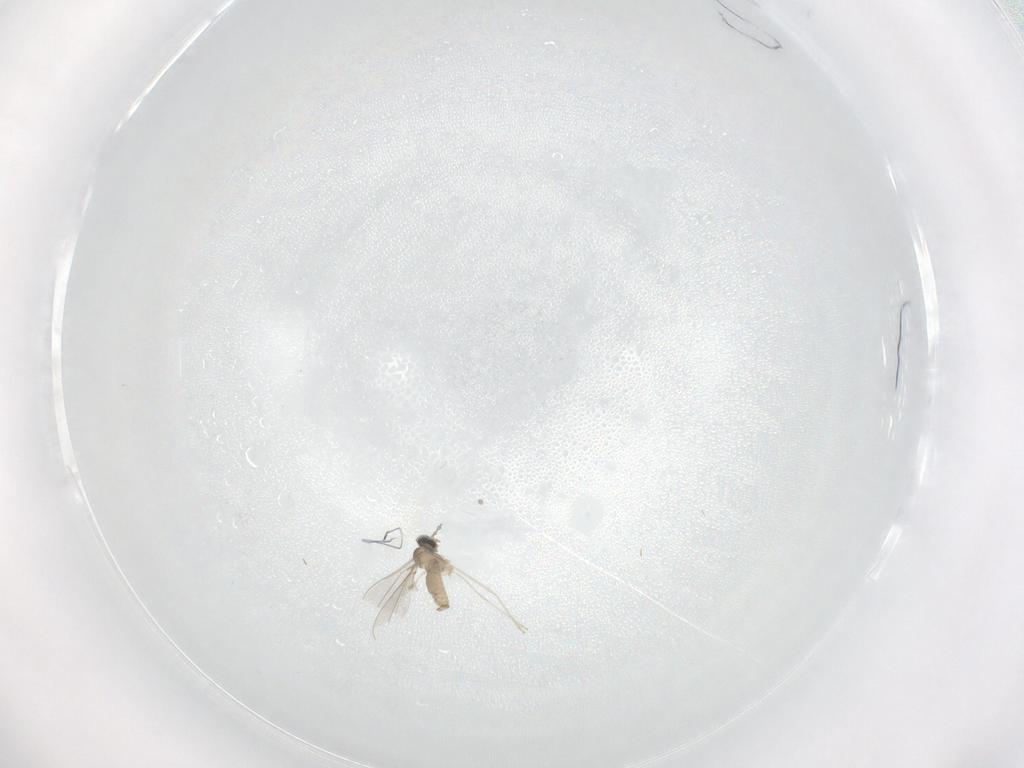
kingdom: Animalia
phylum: Arthropoda
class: Insecta
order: Diptera
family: Cecidomyiidae
